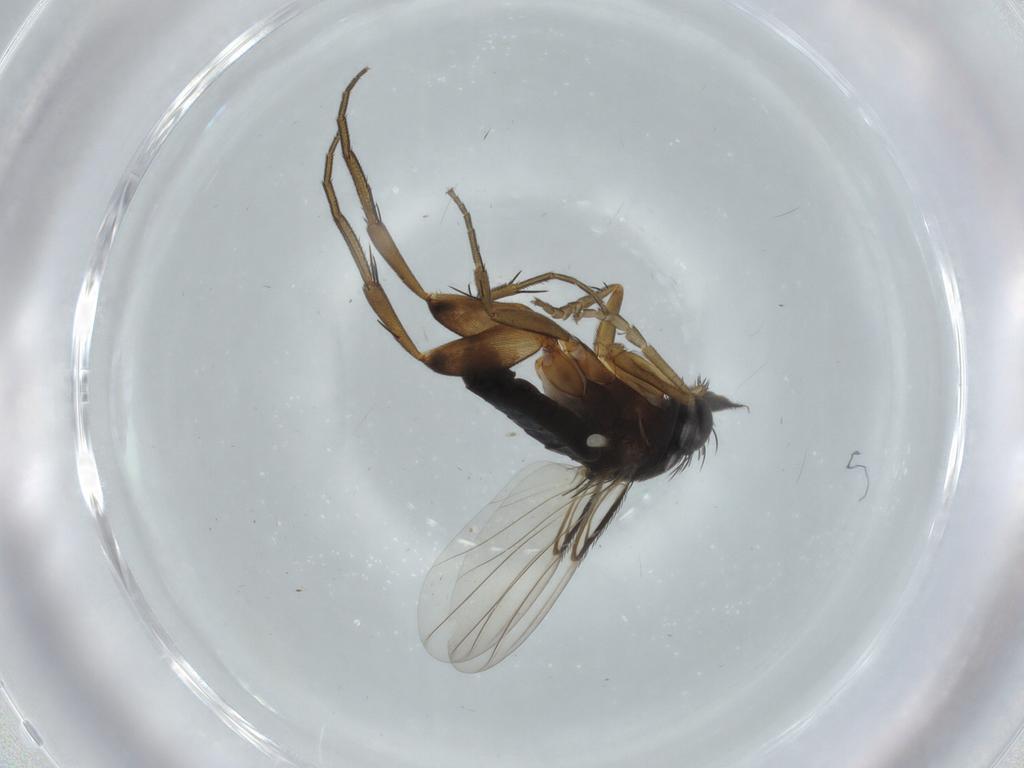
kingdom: Animalia
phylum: Arthropoda
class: Insecta
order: Diptera
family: Phoridae
